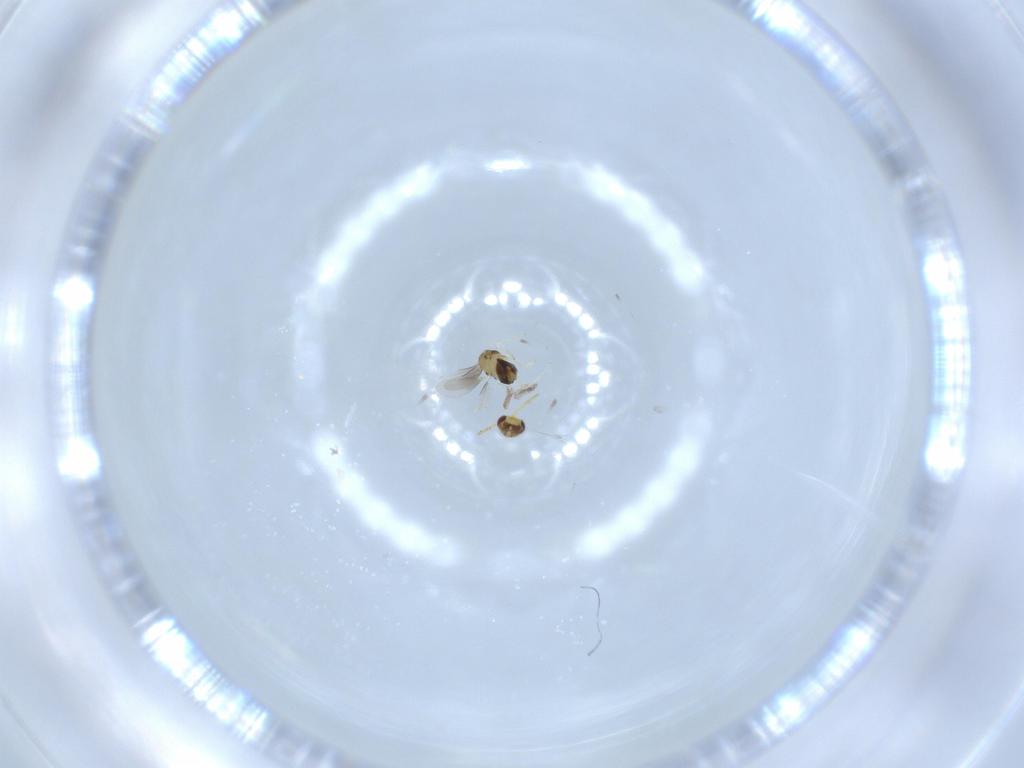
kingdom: Animalia
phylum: Arthropoda
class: Insecta
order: Hymenoptera
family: Aphelinidae
